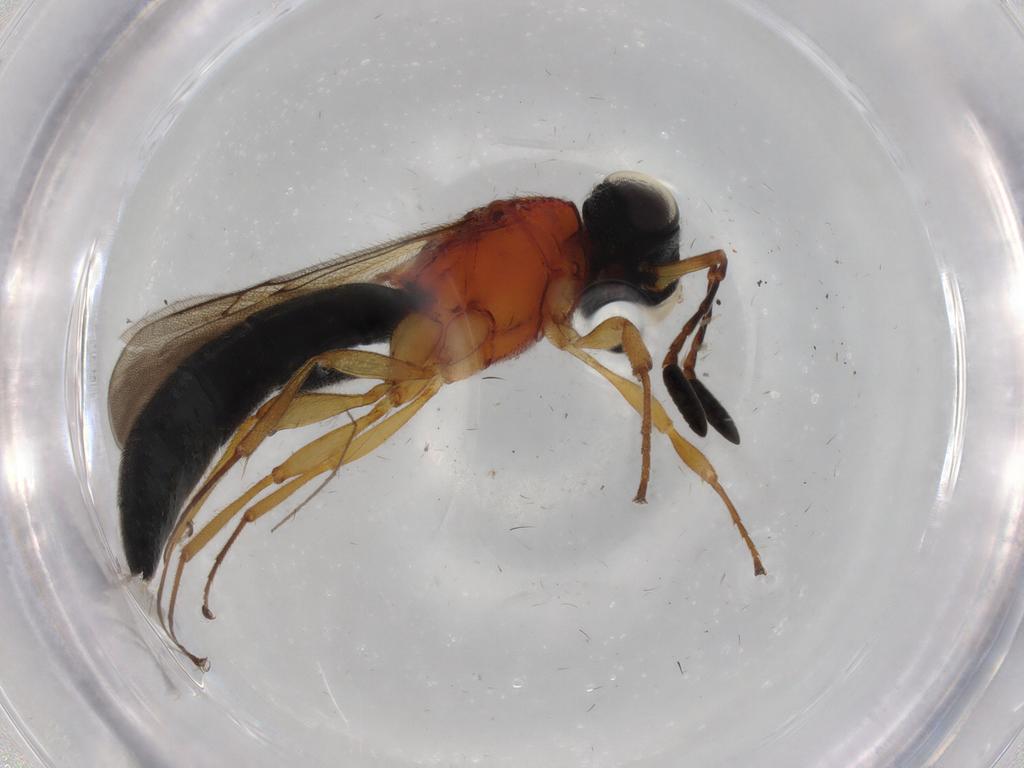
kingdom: Animalia
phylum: Arthropoda
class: Insecta
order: Hymenoptera
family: Scelionidae
